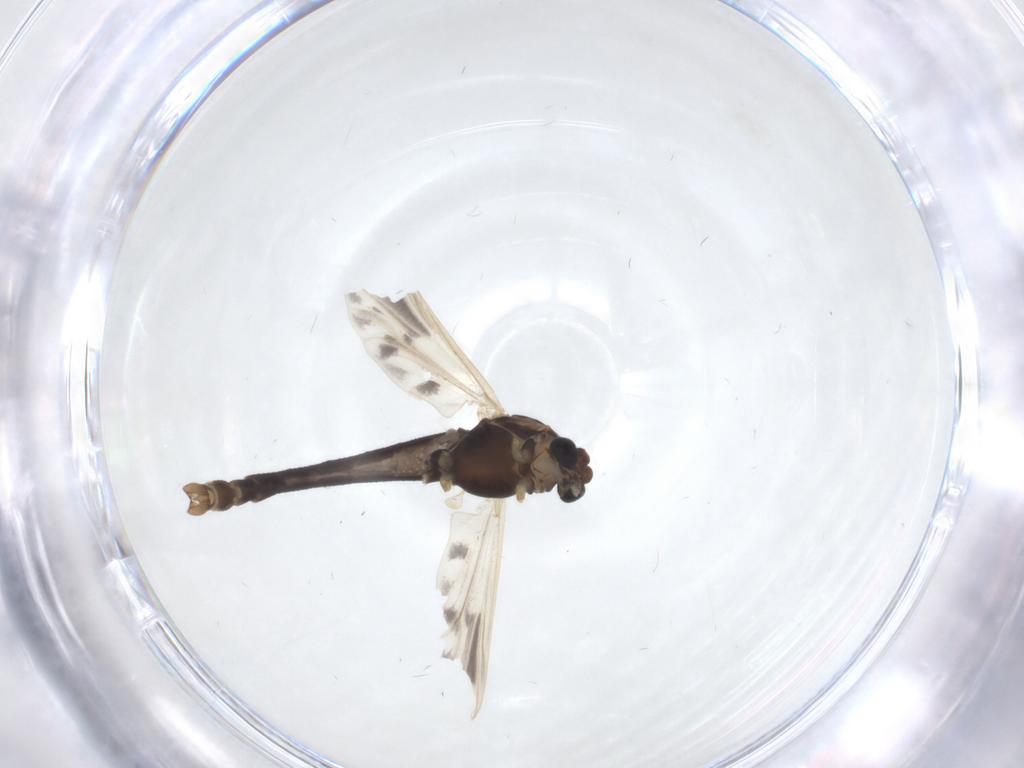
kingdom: Animalia
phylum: Arthropoda
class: Insecta
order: Diptera
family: Chironomidae
